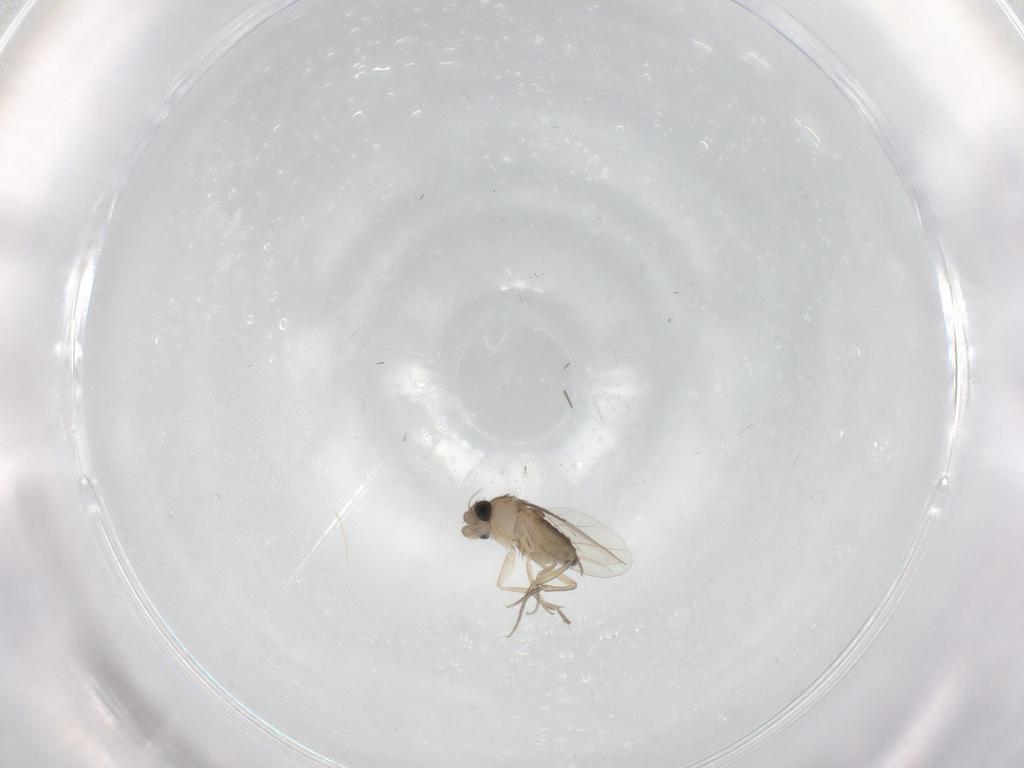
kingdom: Animalia
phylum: Arthropoda
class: Insecta
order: Diptera
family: Phoridae
